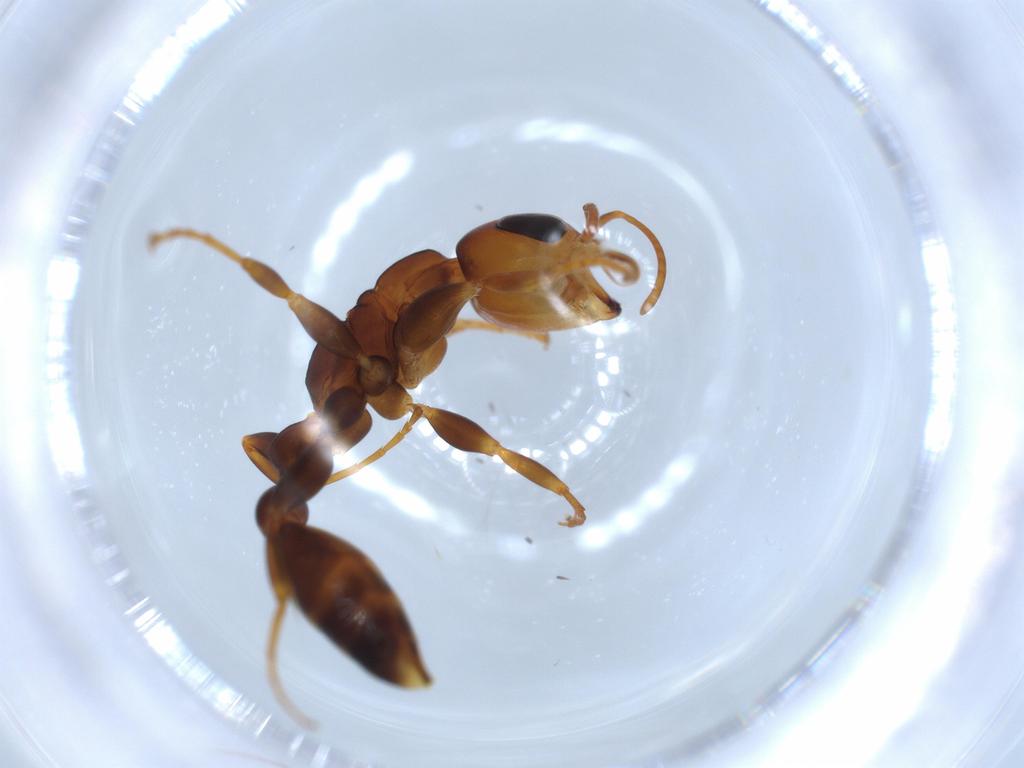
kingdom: Animalia
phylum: Arthropoda
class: Insecta
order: Hymenoptera
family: Formicidae
